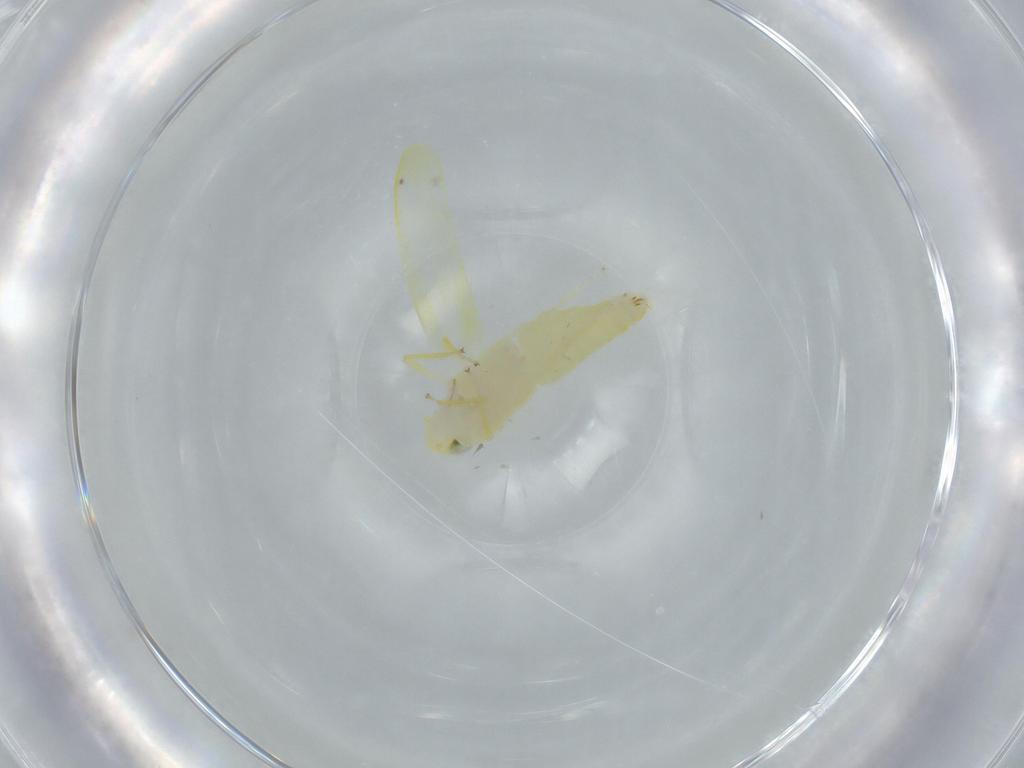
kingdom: Animalia
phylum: Arthropoda
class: Insecta
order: Hemiptera
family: Cicadellidae
